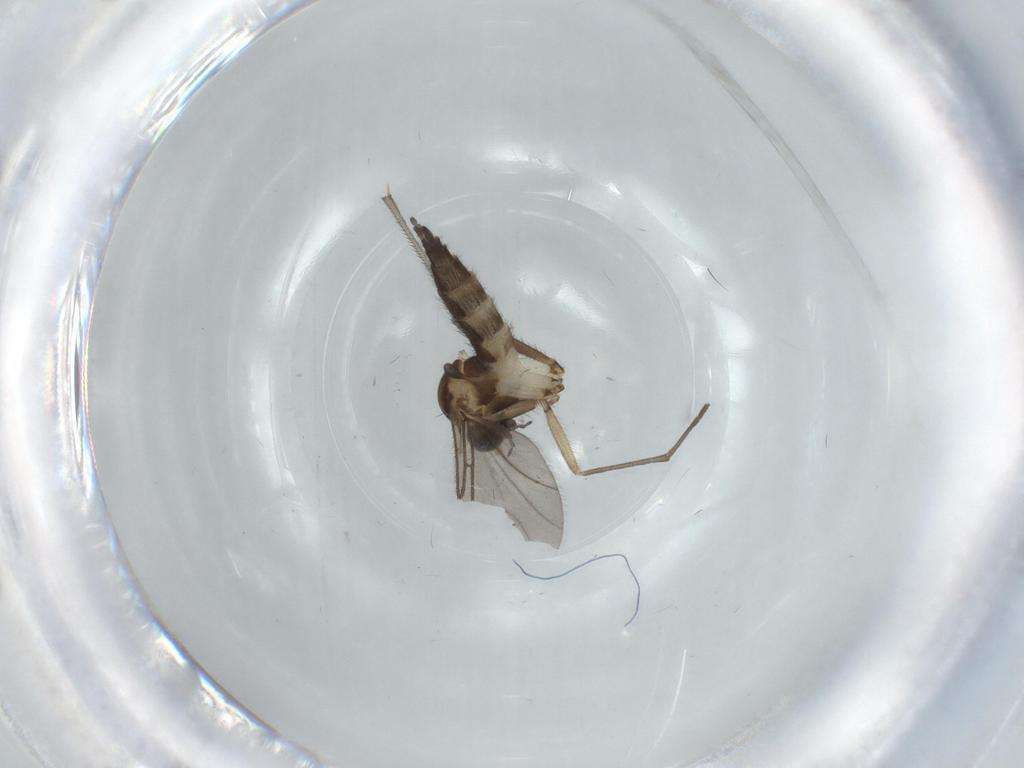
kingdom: Animalia
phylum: Arthropoda
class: Insecta
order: Diptera
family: Sciaridae
